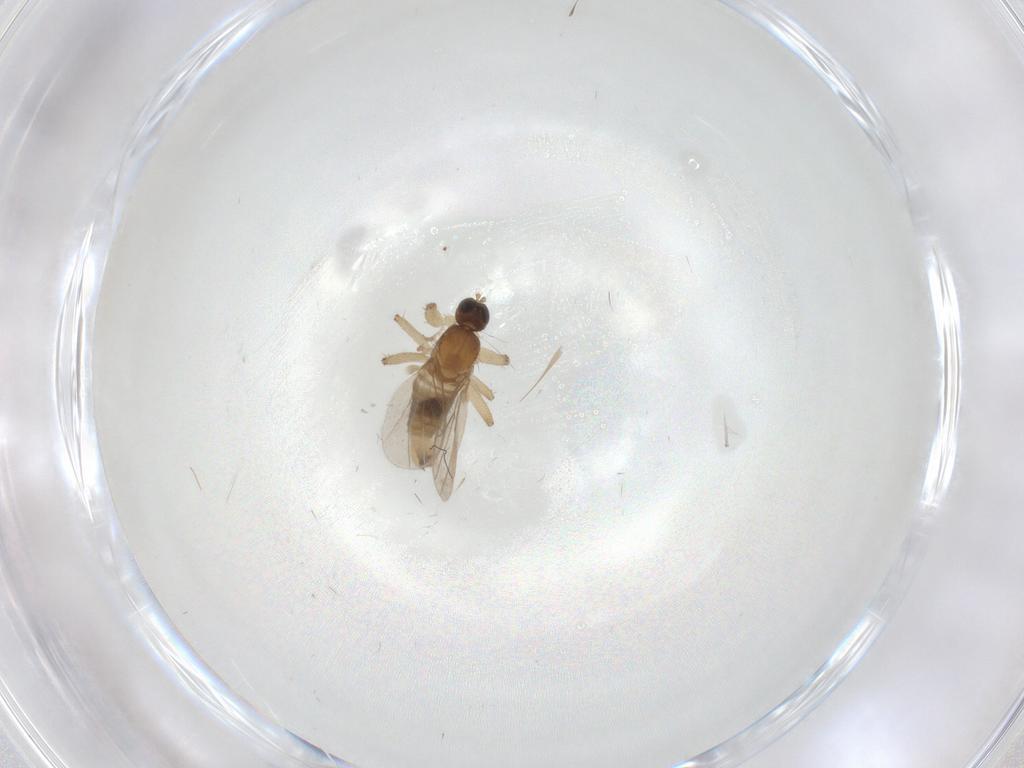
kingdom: Animalia
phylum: Arthropoda
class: Insecta
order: Diptera
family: Hybotidae
